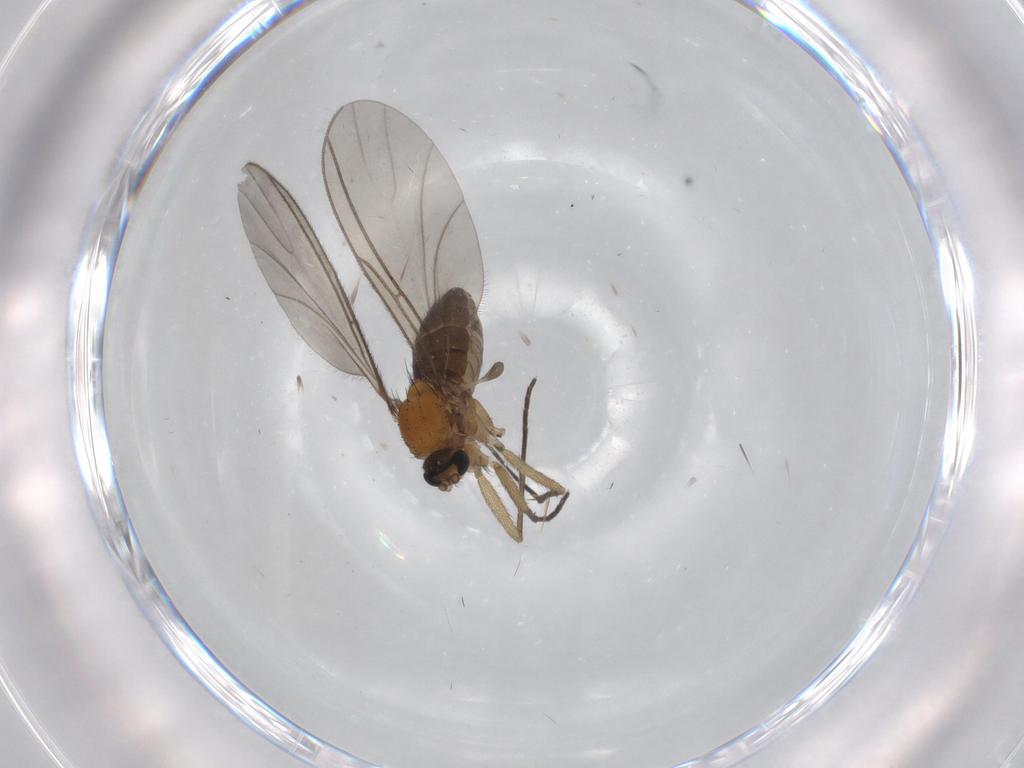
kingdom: Animalia
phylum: Arthropoda
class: Insecta
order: Diptera
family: Sciaridae
